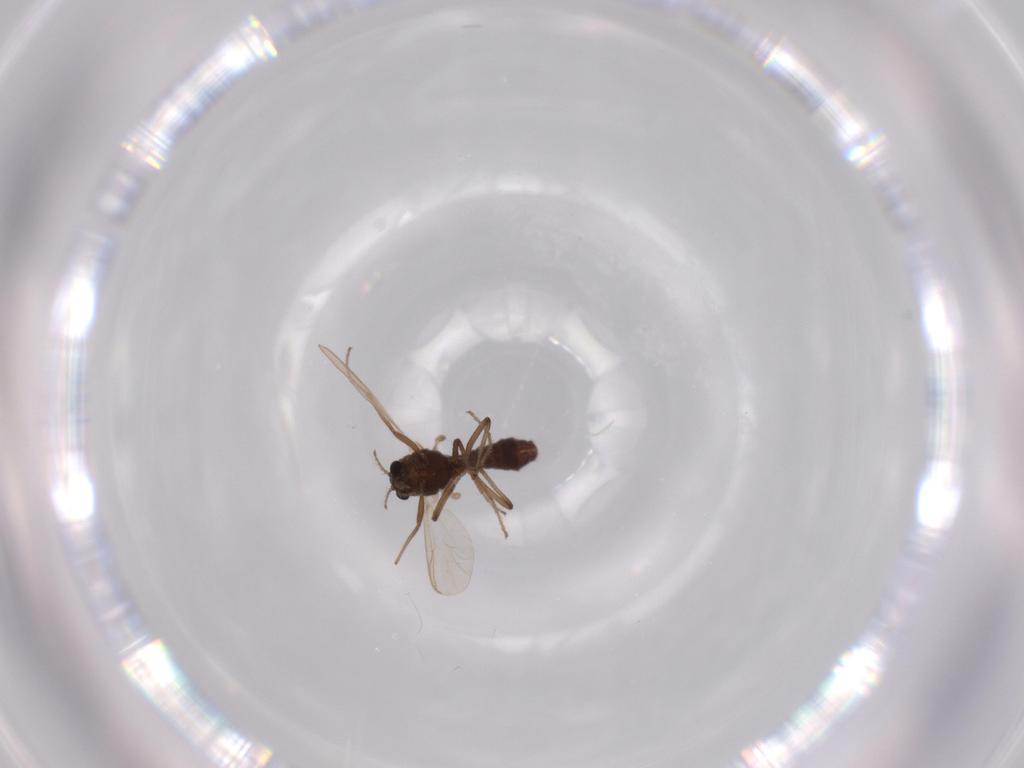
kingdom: Animalia
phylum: Arthropoda
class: Insecta
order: Diptera
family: Chironomidae
